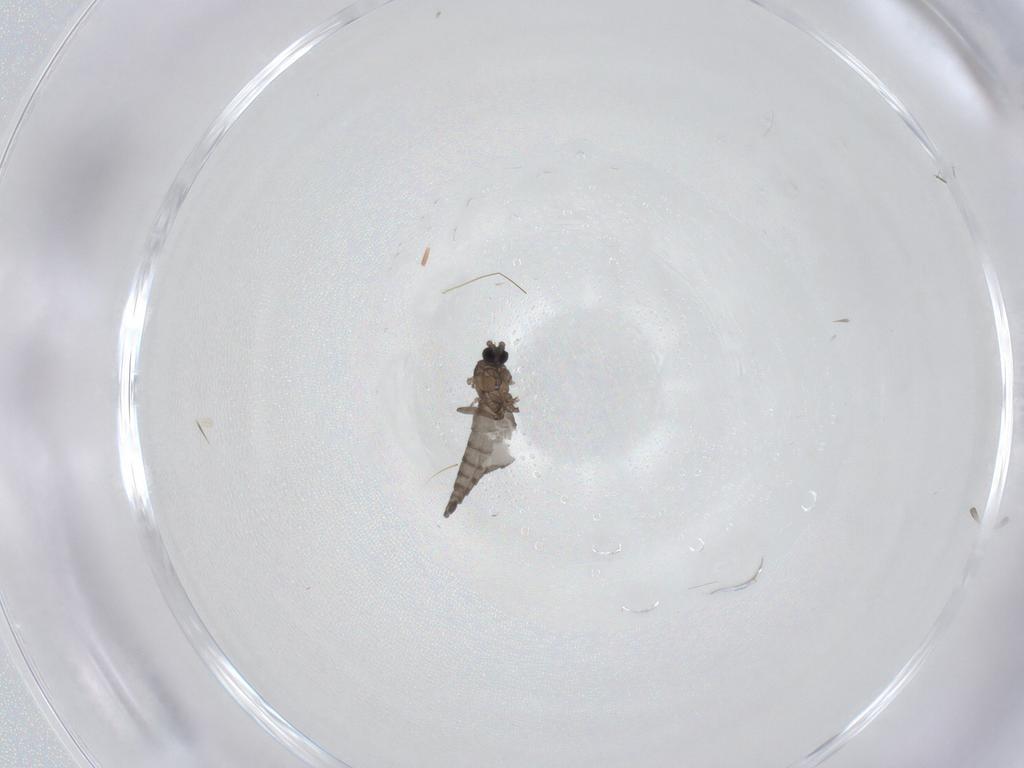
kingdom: Animalia
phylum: Arthropoda
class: Insecta
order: Diptera
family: Sciaridae
